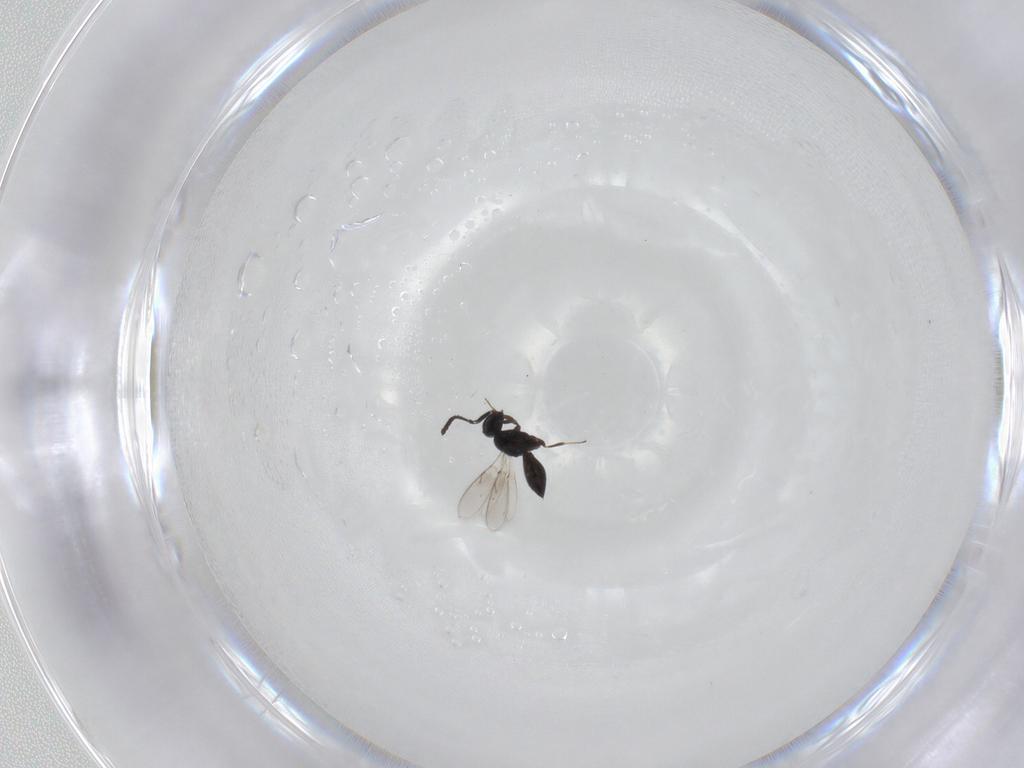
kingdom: Animalia
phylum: Arthropoda
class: Insecta
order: Hymenoptera
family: Scelionidae
